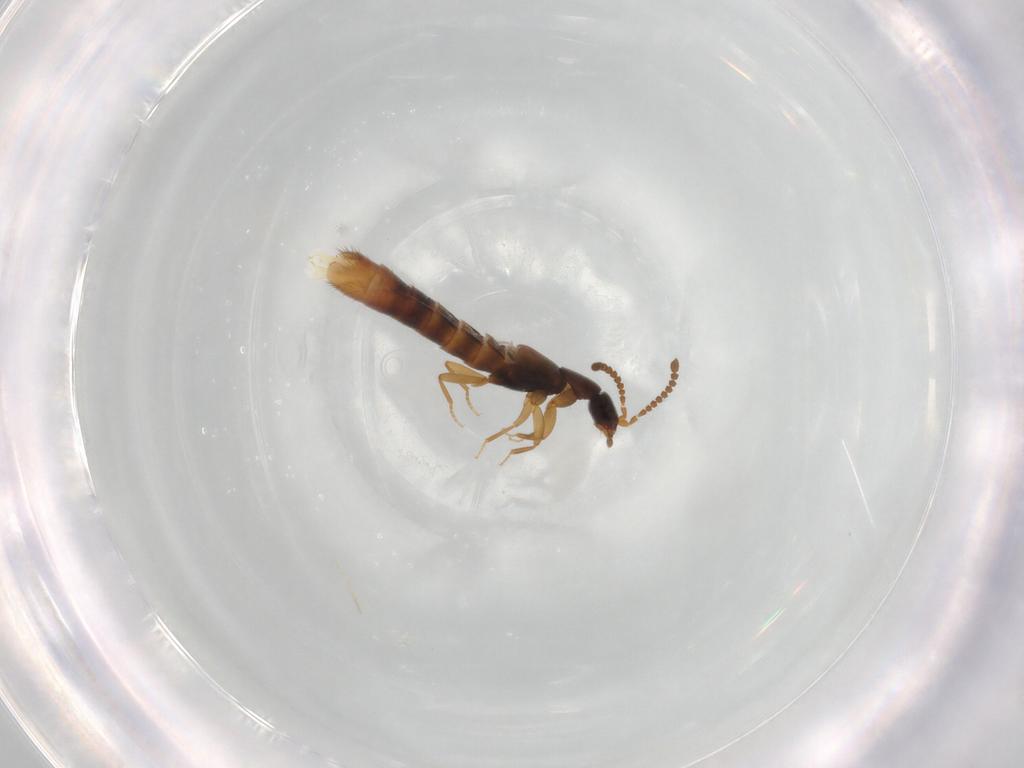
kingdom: Animalia
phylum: Arthropoda
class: Insecta
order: Coleoptera
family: Staphylinidae
